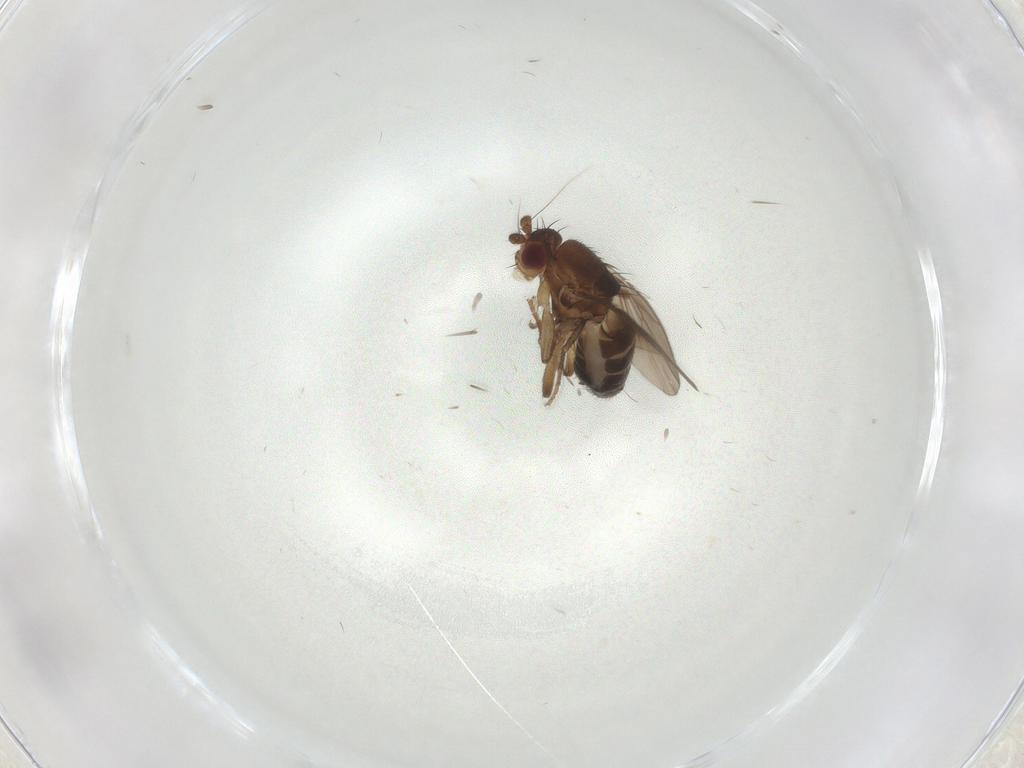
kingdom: Animalia
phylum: Arthropoda
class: Insecta
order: Diptera
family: Sphaeroceridae
